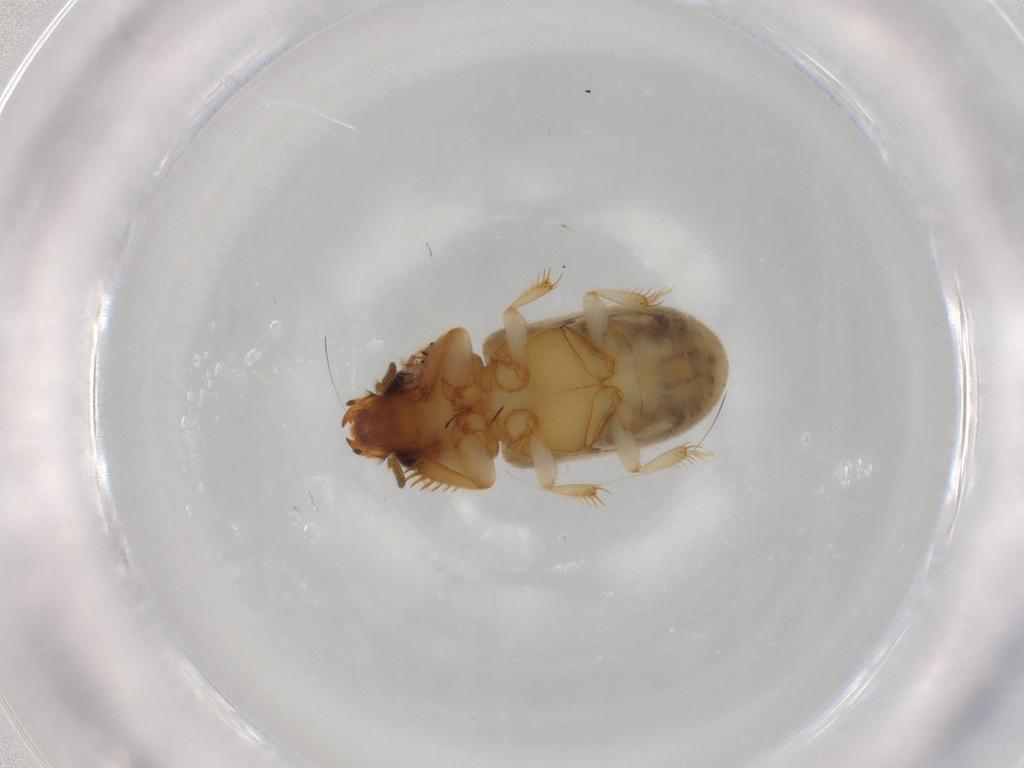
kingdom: Animalia
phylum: Arthropoda
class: Insecta
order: Coleoptera
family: Heteroceridae
